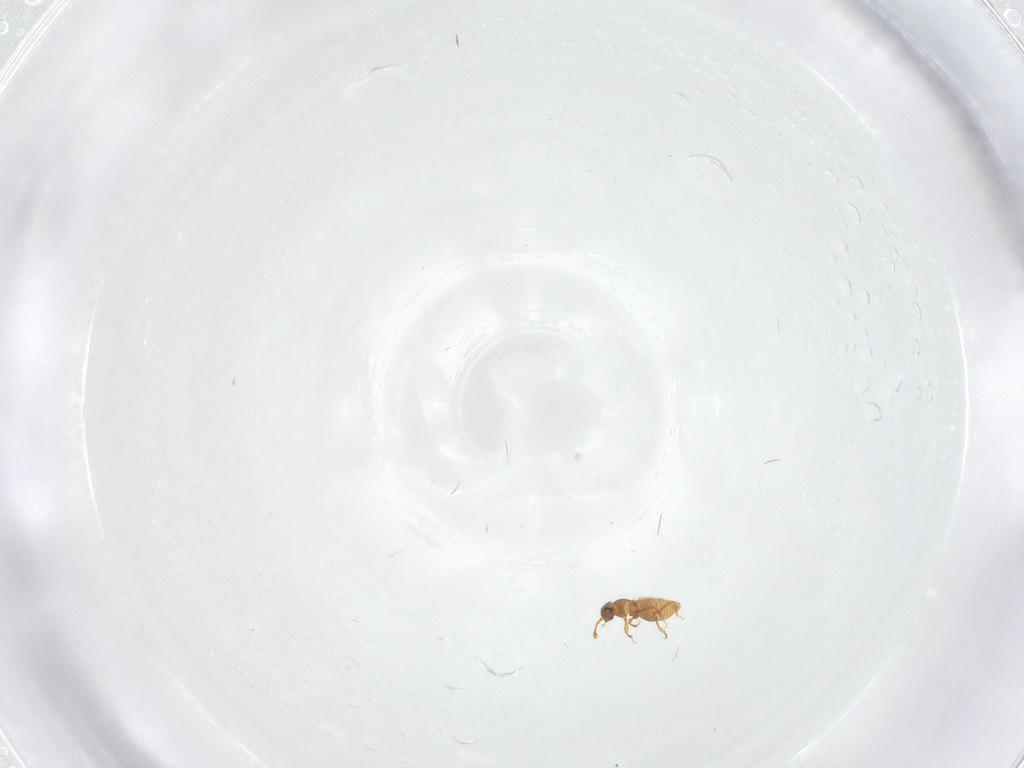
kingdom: Animalia
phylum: Arthropoda
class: Insecta
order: Coleoptera
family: Staphylinidae
